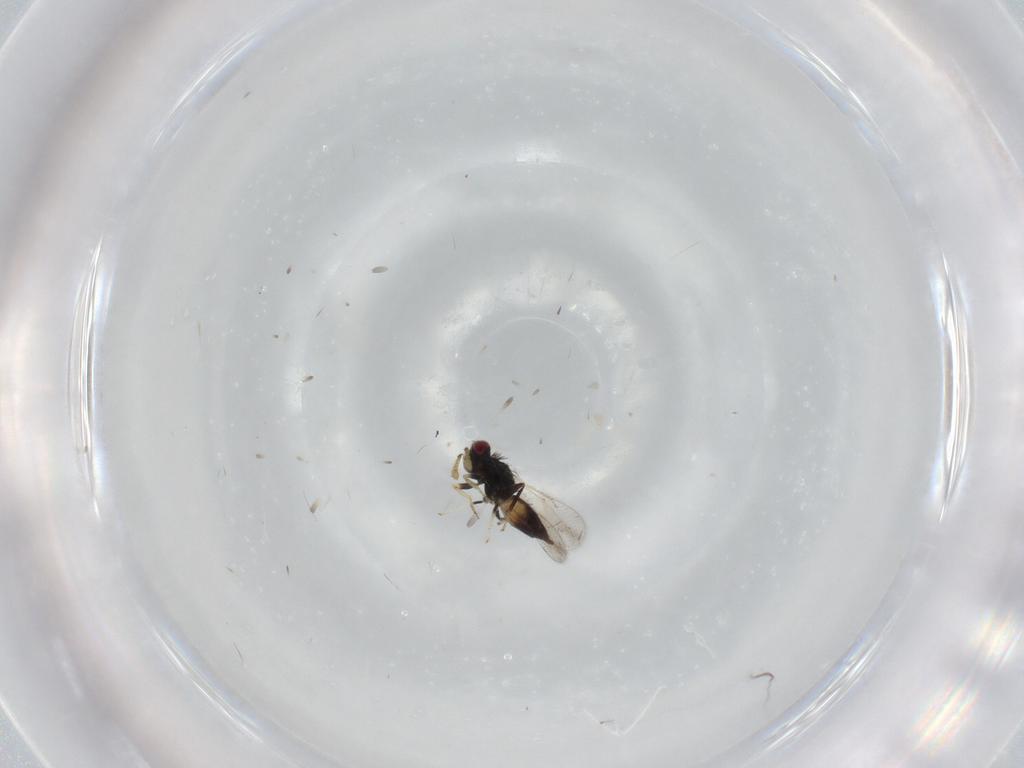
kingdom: Animalia
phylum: Arthropoda
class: Insecta
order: Hymenoptera
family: Eulophidae
